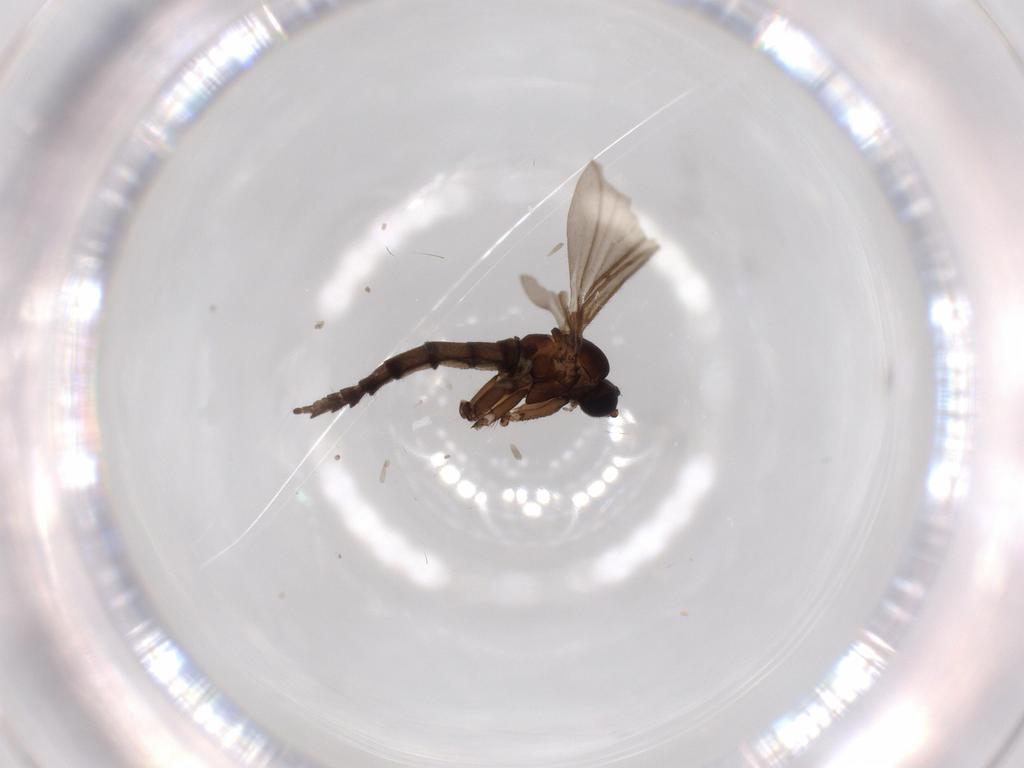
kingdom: Animalia
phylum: Arthropoda
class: Insecta
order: Diptera
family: Sciaridae
